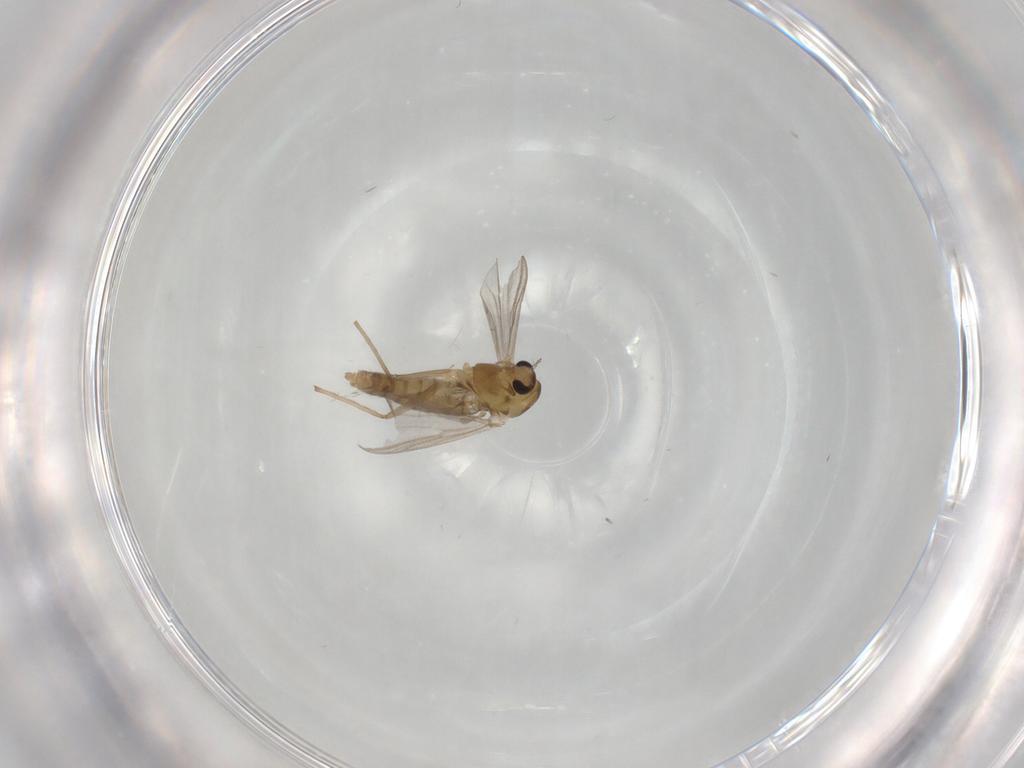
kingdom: Animalia
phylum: Arthropoda
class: Insecta
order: Diptera
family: Chironomidae
